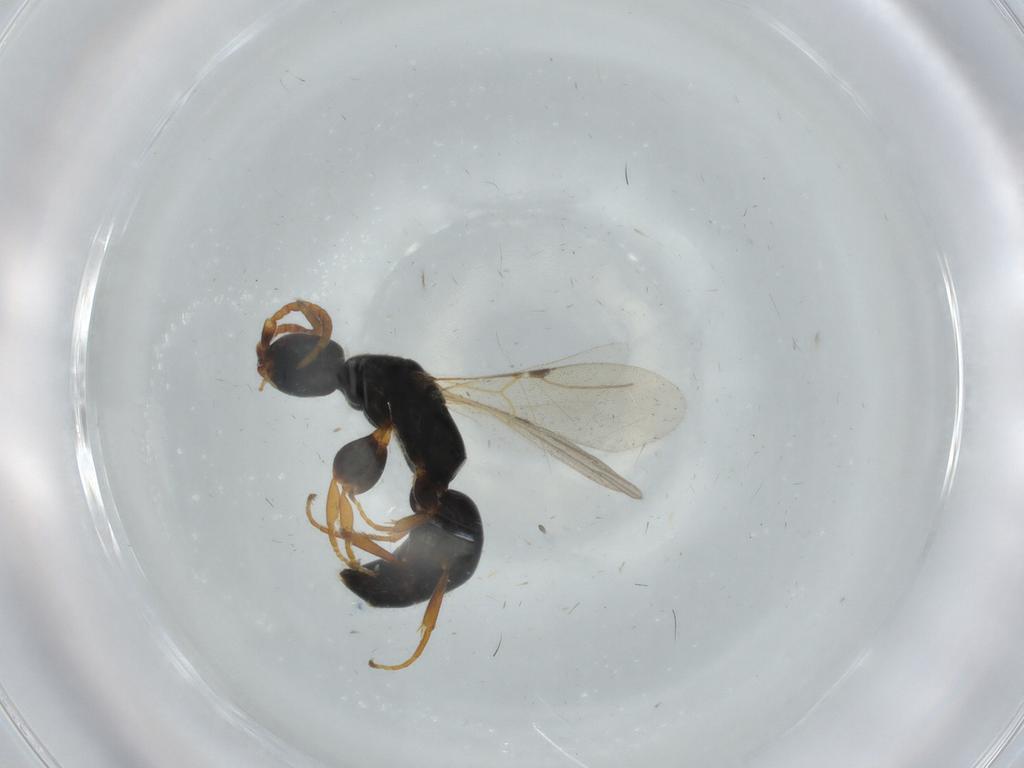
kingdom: Animalia
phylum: Arthropoda
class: Insecta
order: Hymenoptera
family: Bethylidae
